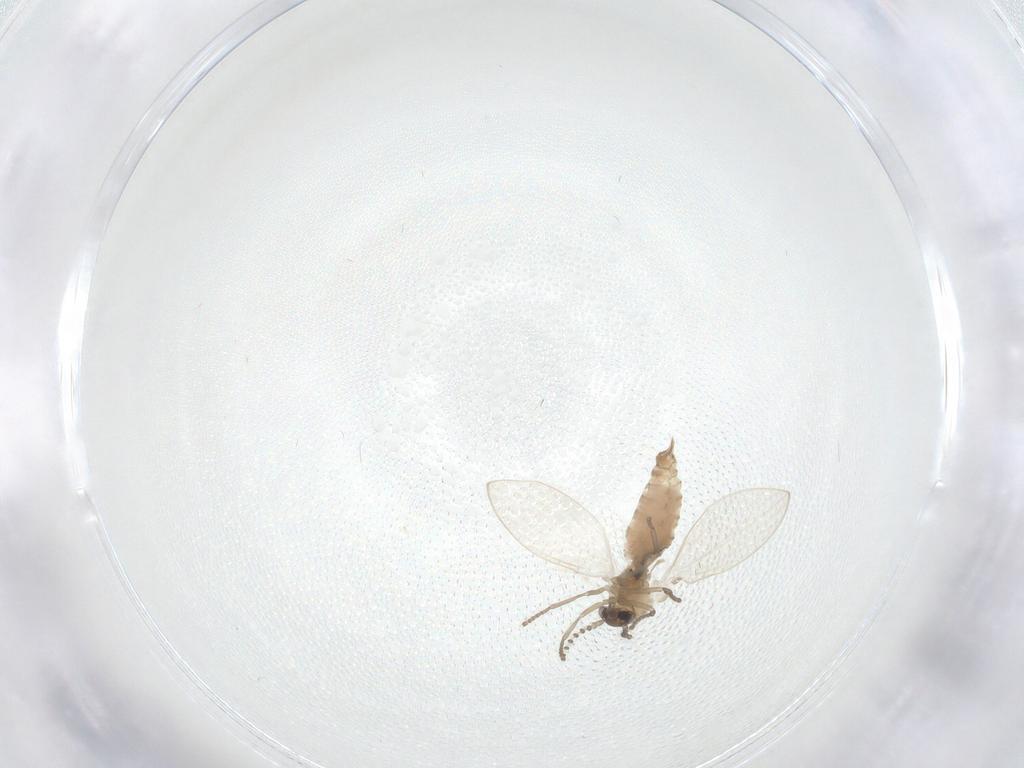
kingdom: Animalia
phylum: Arthropoda
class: Insecta
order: Diptera
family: Psychodidae
